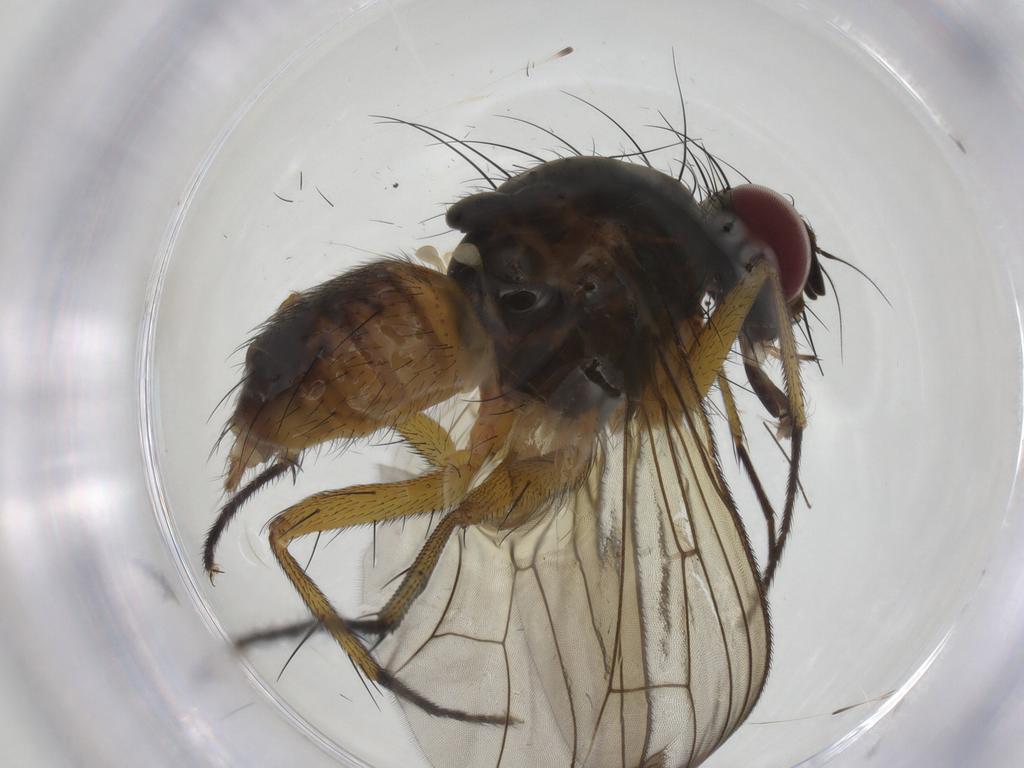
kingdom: Animalia
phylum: Arthropoda
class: Insecta
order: Diptera
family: Muscidae
